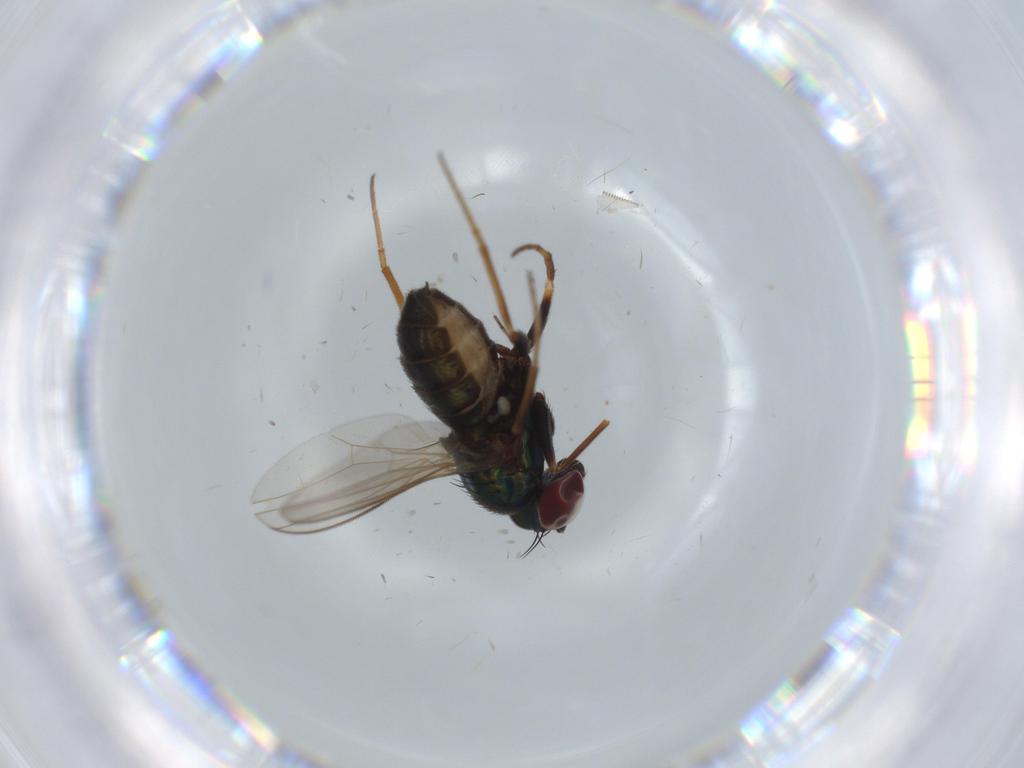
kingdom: Animalia
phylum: Arthropoda
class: Insecta
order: Diptera
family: Dolichopodidae
